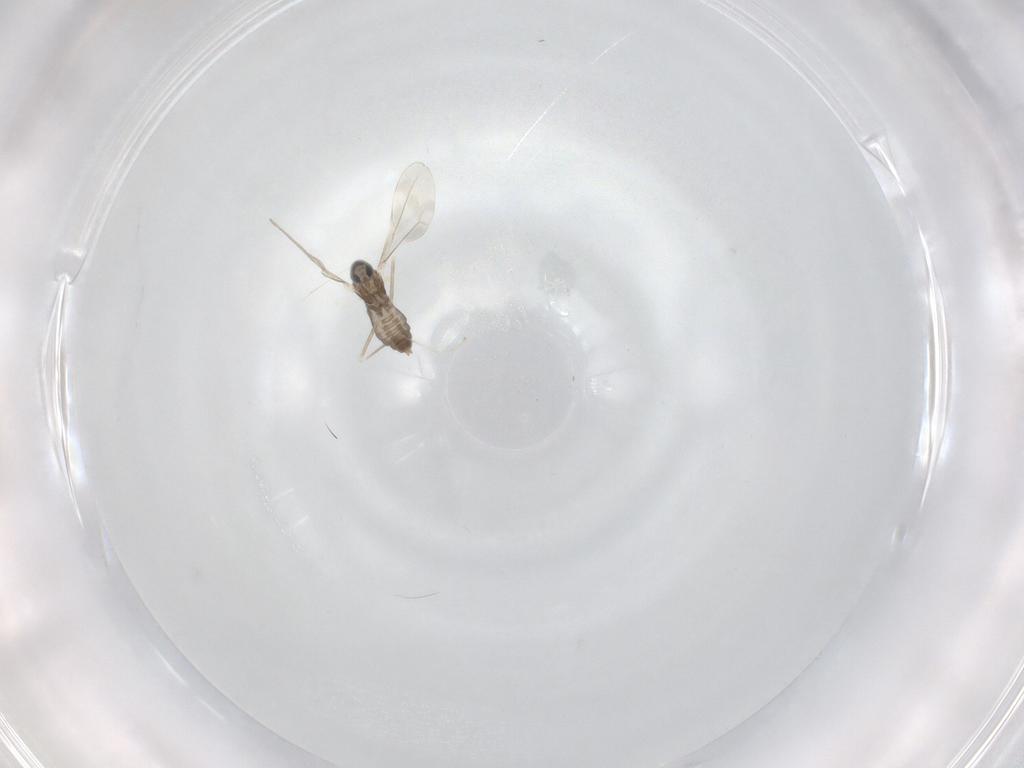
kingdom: Animalia
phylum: Arthropoda
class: Insecta
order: Diptera
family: Cecidomyiidae
